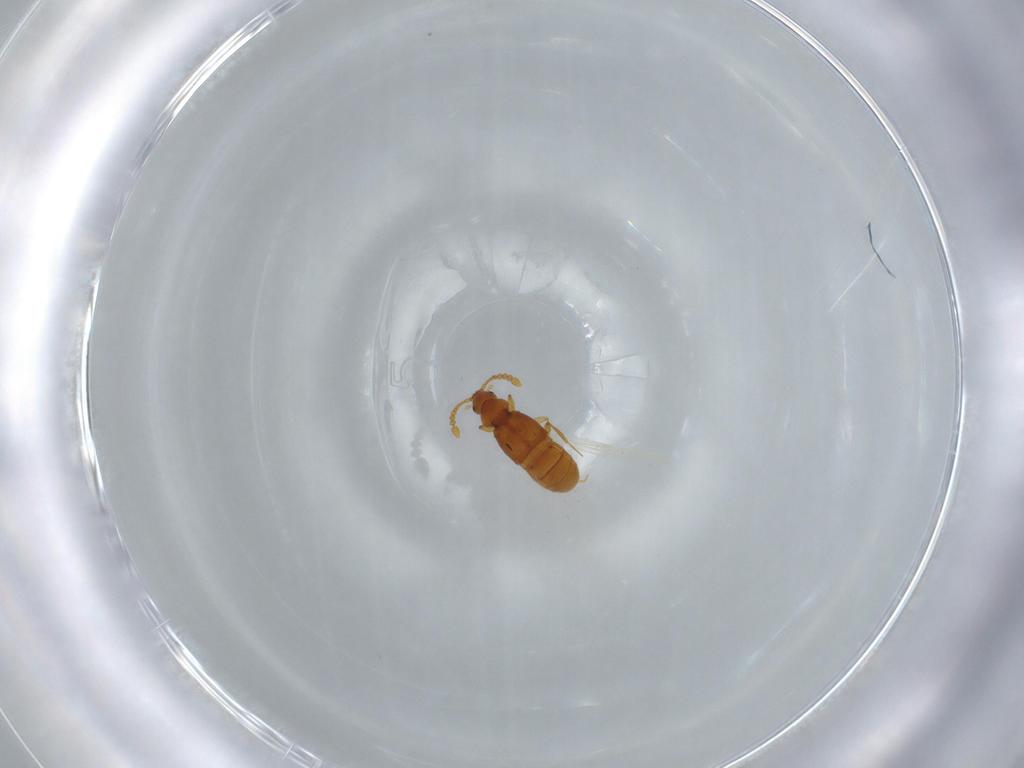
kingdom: Animalia
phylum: Arthropoda
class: Insecta
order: Coleoptera
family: Staphylinidae
